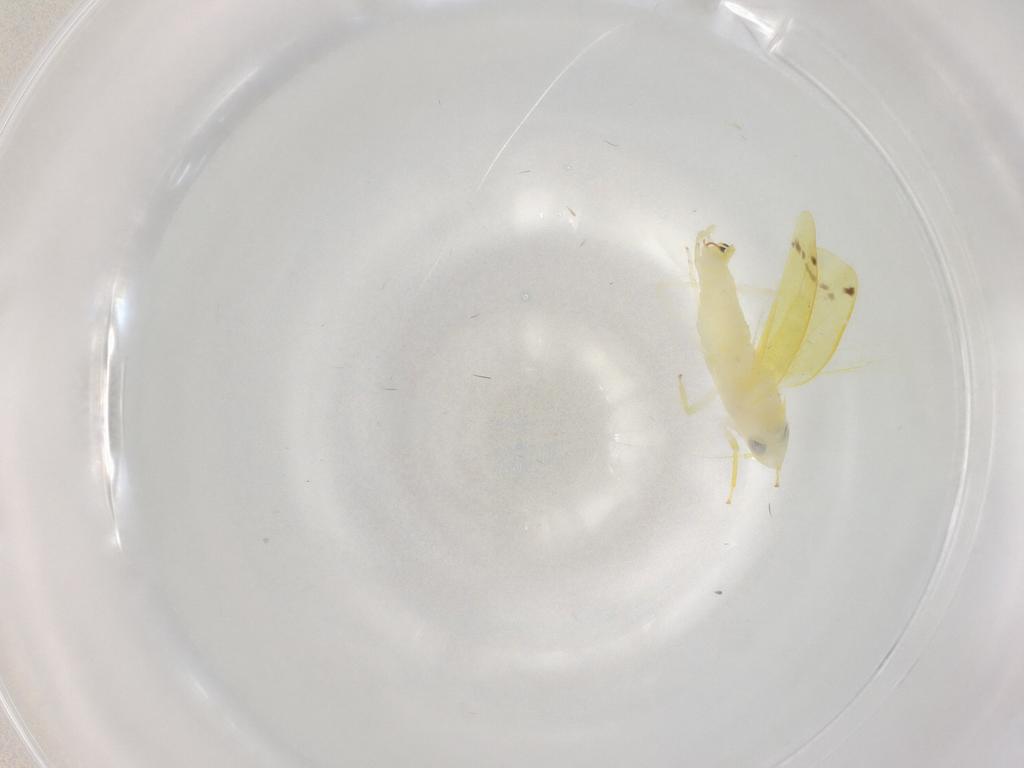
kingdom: Animalia
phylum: Arthropoda
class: Insecta
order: Hemiptera
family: Cicadellidae
